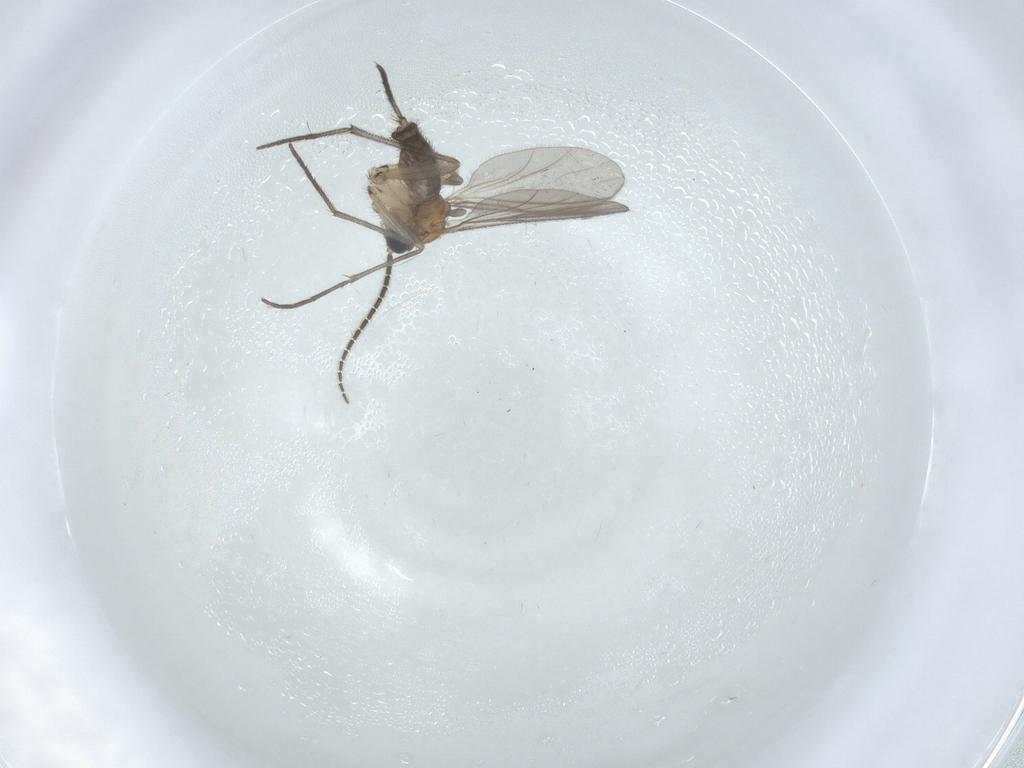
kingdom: Animalia
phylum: Arthropoda
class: Insecta
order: Diptera
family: Sciaridae
